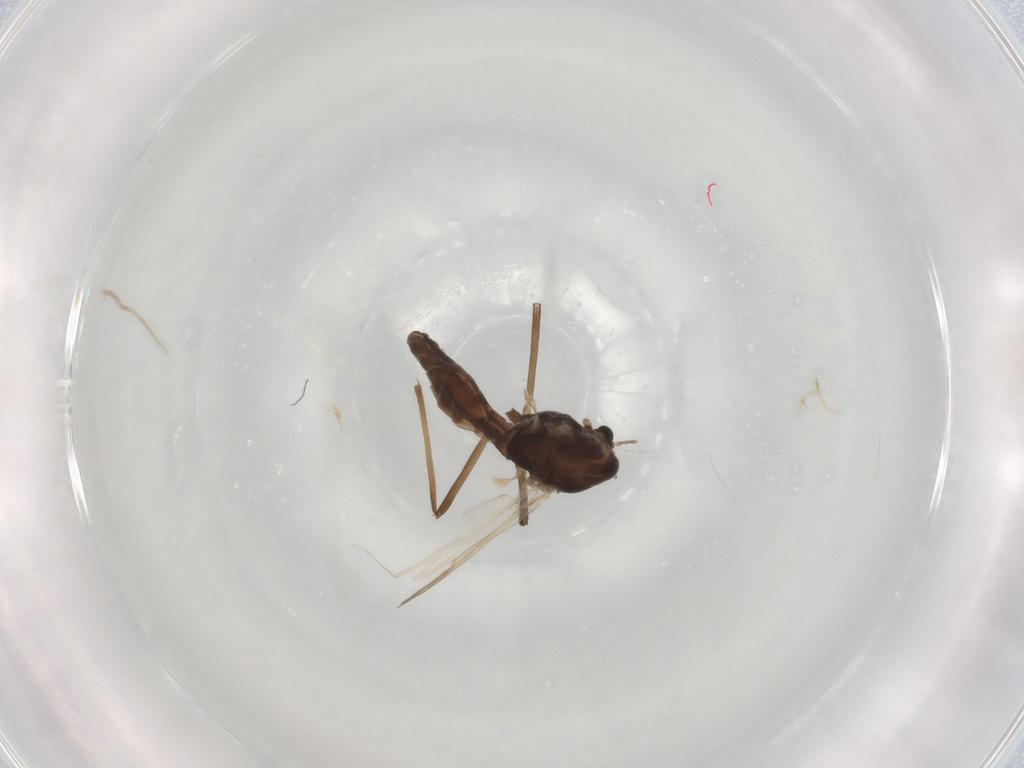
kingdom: Animalia
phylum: Arthropoda
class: Insecta
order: Diptera
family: Chironomidae
